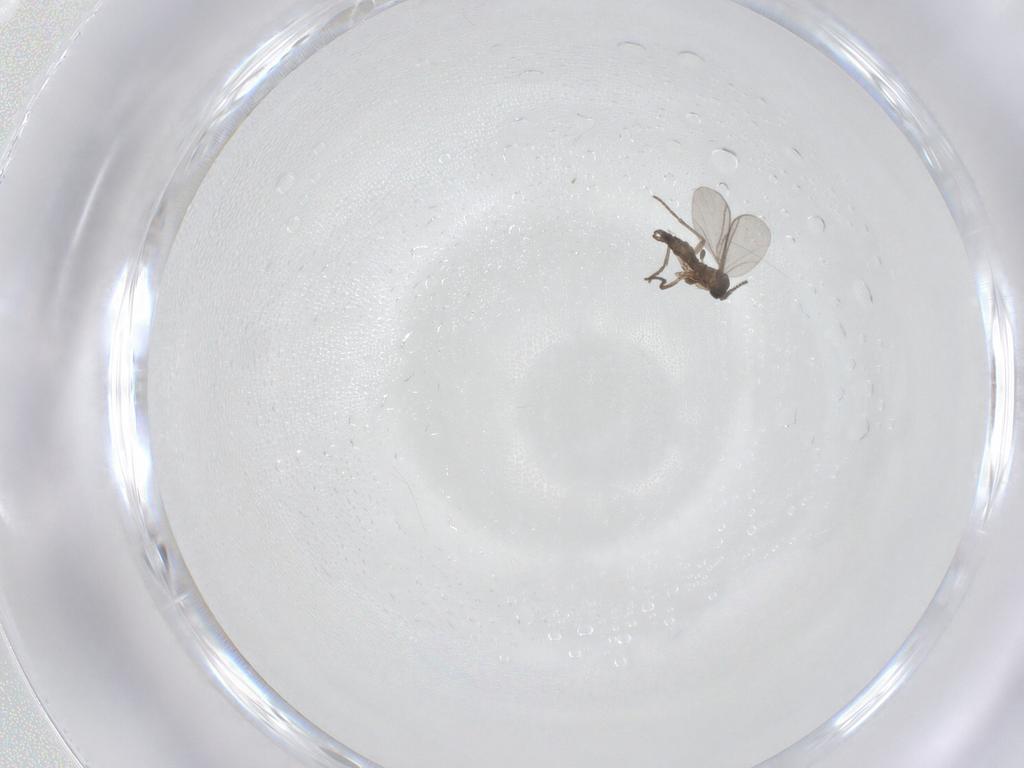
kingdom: Animalia
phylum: Arthropoda
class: Insecta
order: Diptera
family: Sciaridae
